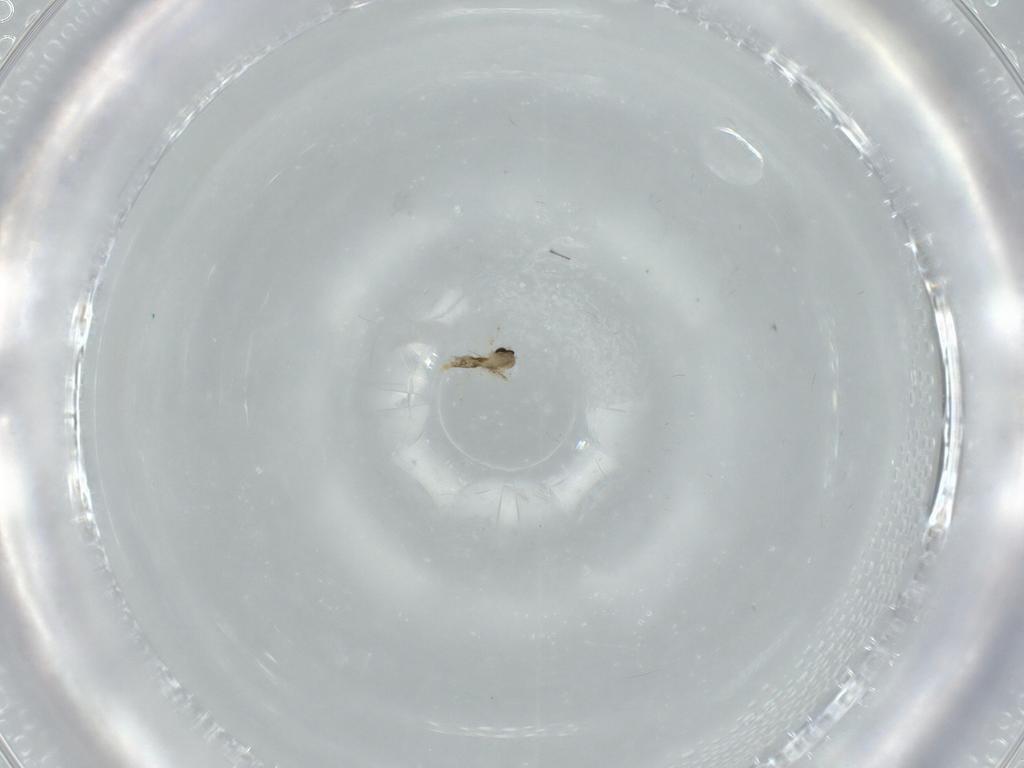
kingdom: Animalia
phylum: Arthropoda
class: Insecta
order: Diptera
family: Cecidomyiidae
